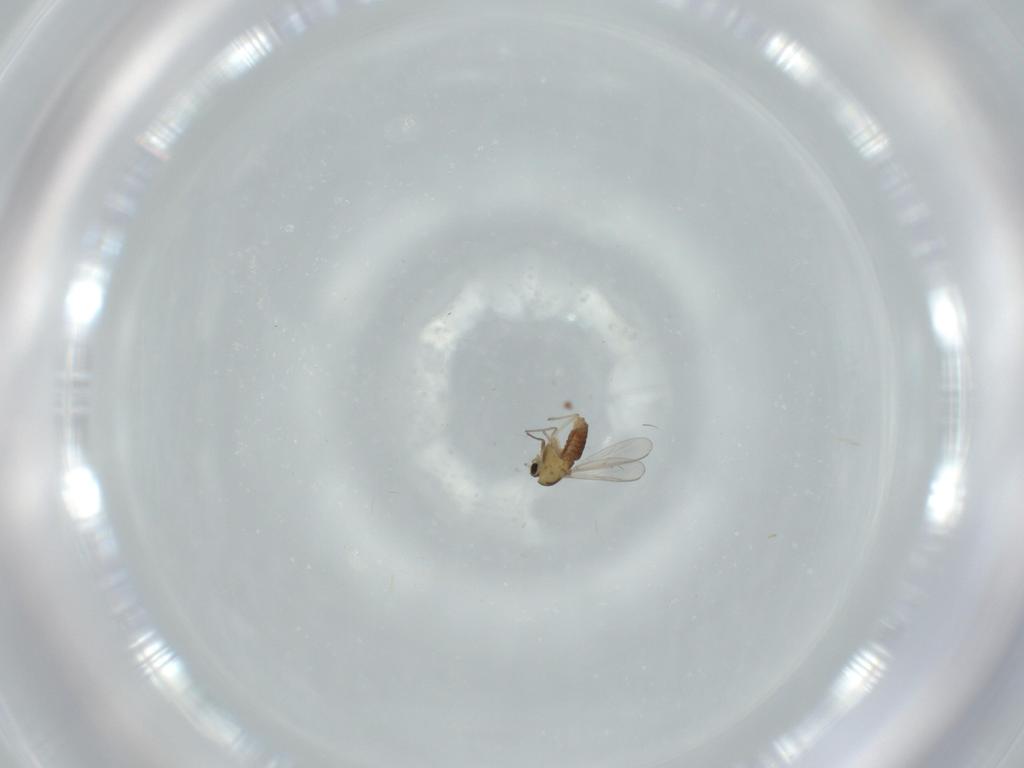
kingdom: Animalia
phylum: Arthropoda
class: Insecta
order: Diptera
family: Chironomidae
